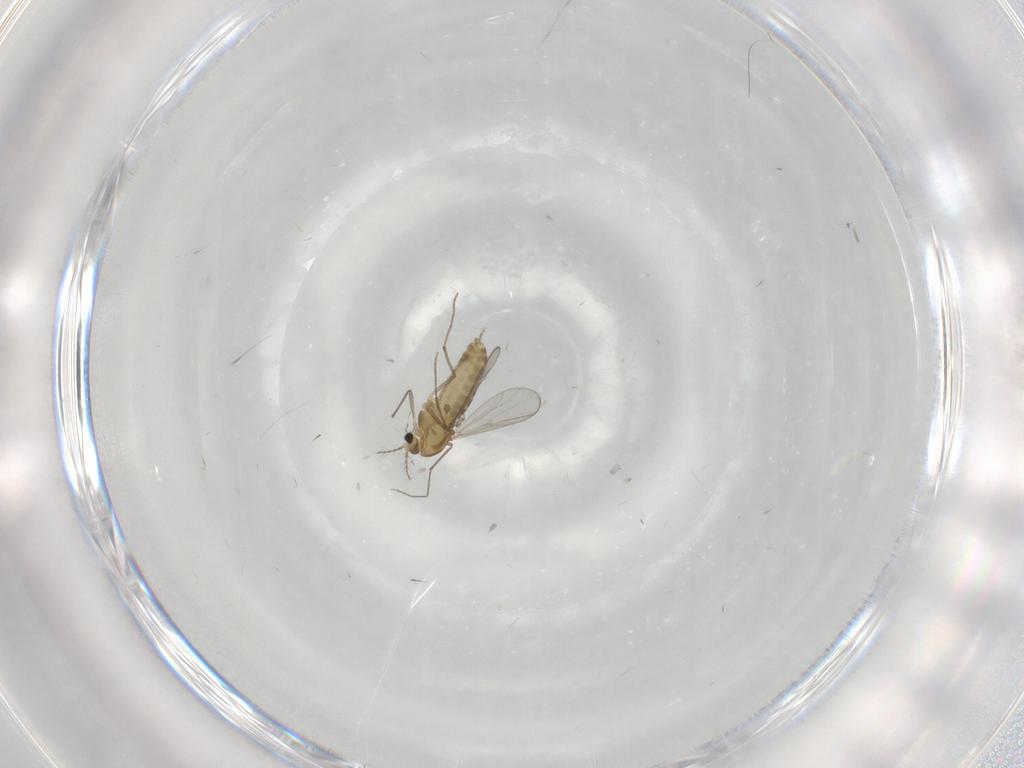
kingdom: Animalia
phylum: Arthropoda
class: Insecta
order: Diptera
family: Chironomidae
